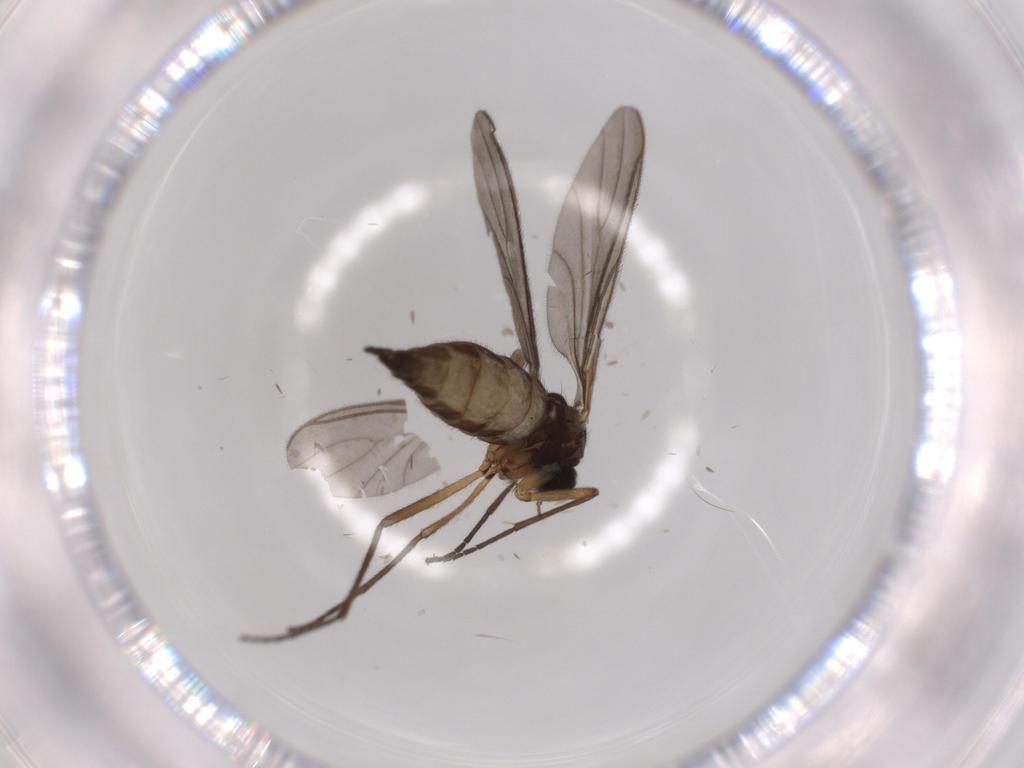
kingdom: Animalia
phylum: Arthropoda
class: Insecta
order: Diptera
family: Sciaridae
